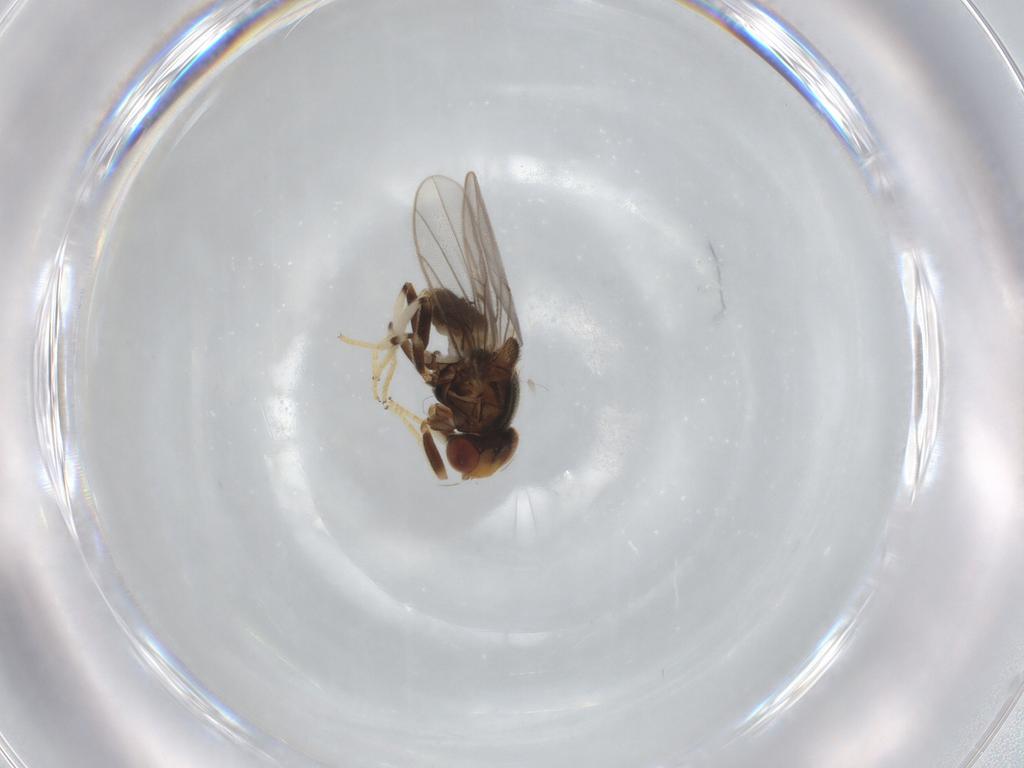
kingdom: Animalia
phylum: Arthropoda
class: Insecta
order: Diptera
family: Chloropidae
